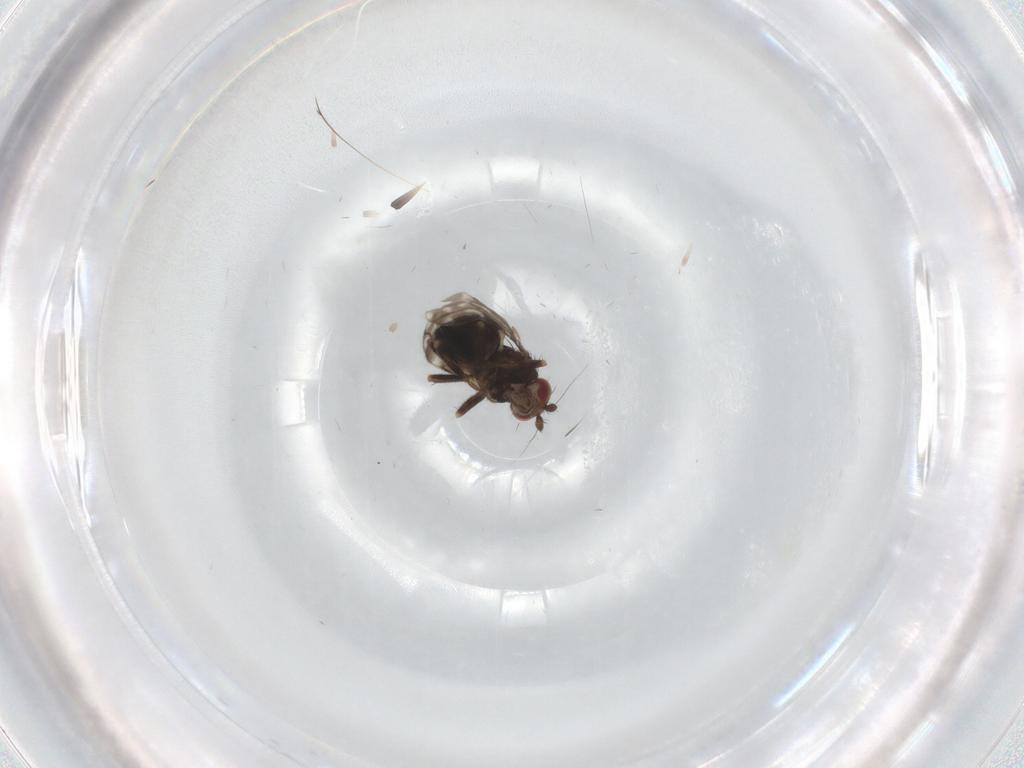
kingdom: Animalia
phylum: Arthropoda
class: Insecta
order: Diptera
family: Sphaeroceridae
